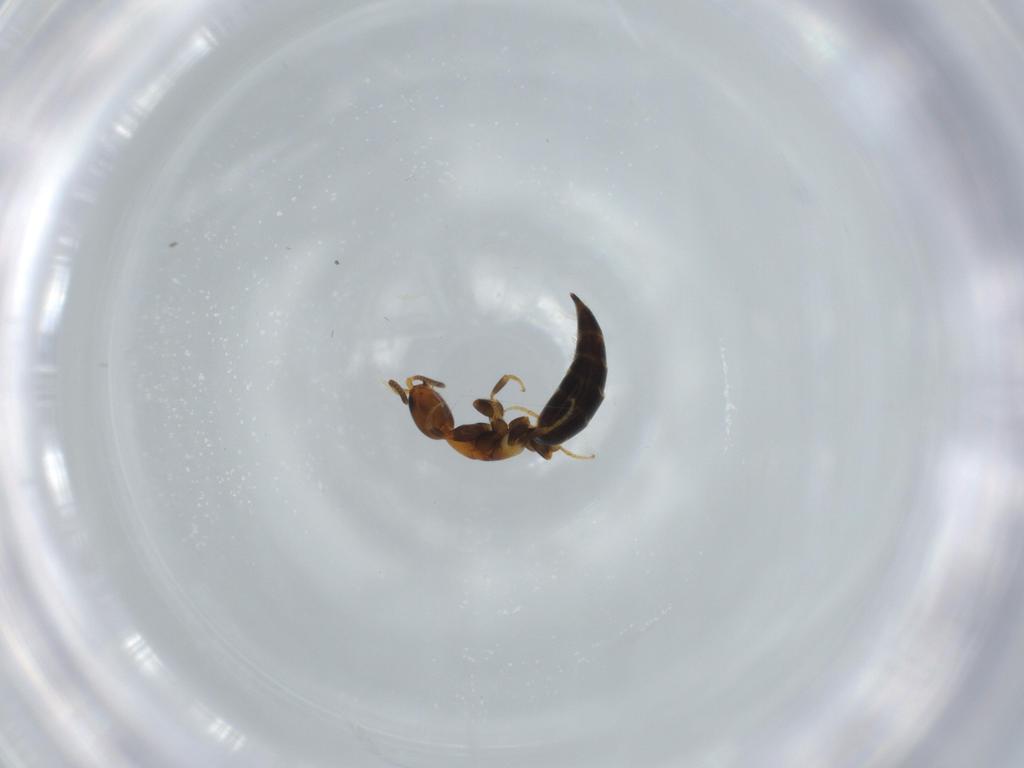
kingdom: Animalia
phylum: Arthropoda
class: Insecta
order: Hymenoptera
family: Bethylidae
